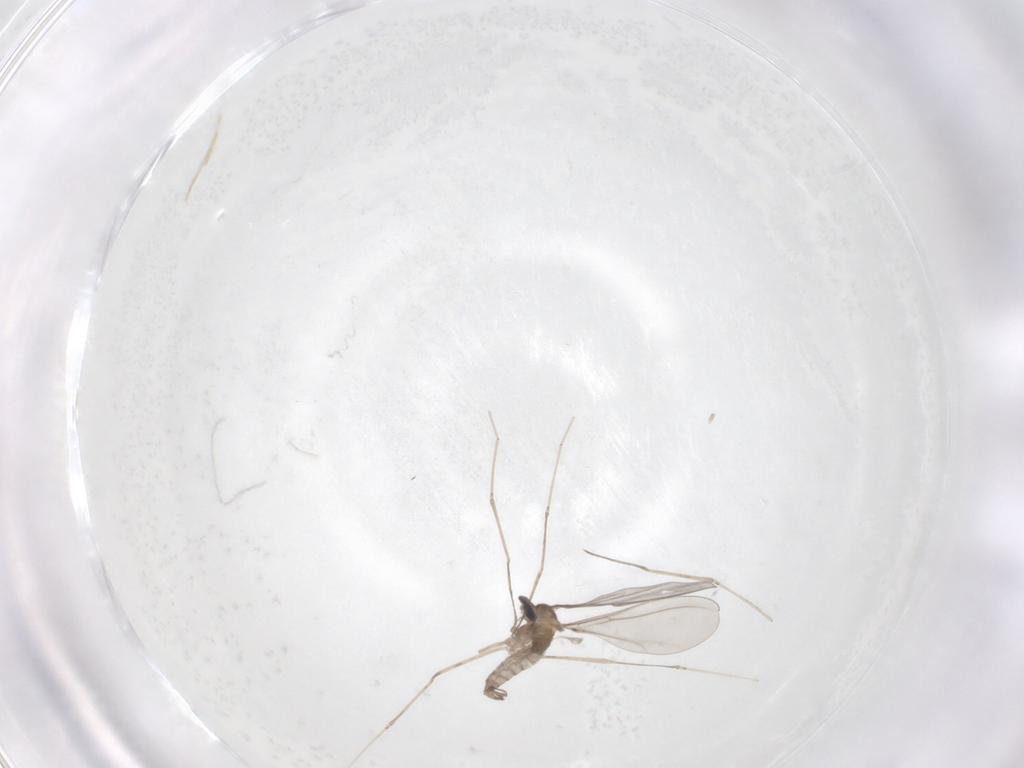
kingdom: Animalia
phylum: Arthropoda
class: Insecta
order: Diptera
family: Cecidomyiidae
